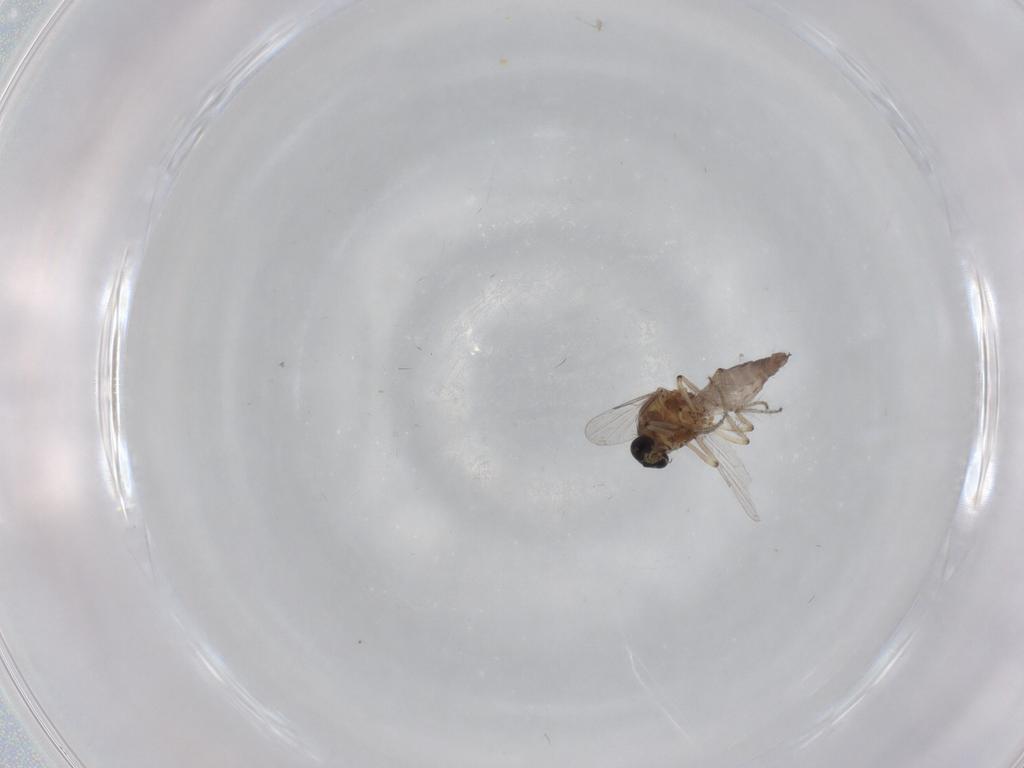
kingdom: Animalia
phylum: Arthropoda
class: Insecta
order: Diptera
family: Ceratopogonidae
